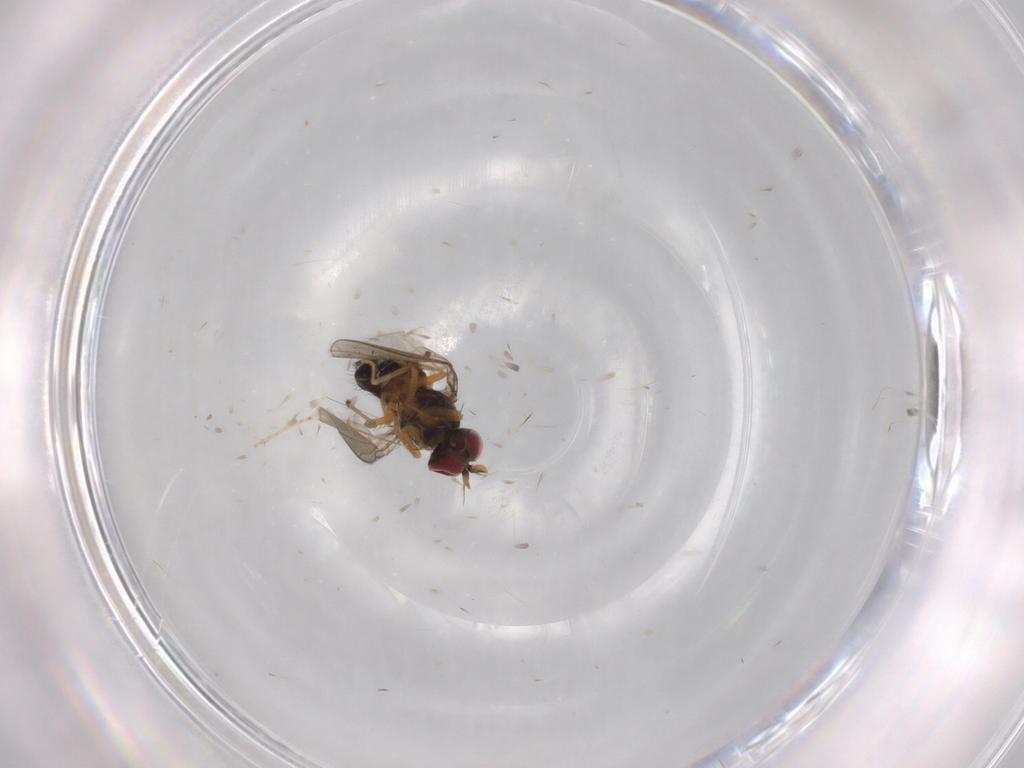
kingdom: Animalia
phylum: Arthropoda
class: Insecta
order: Diptera
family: Ephydridae
